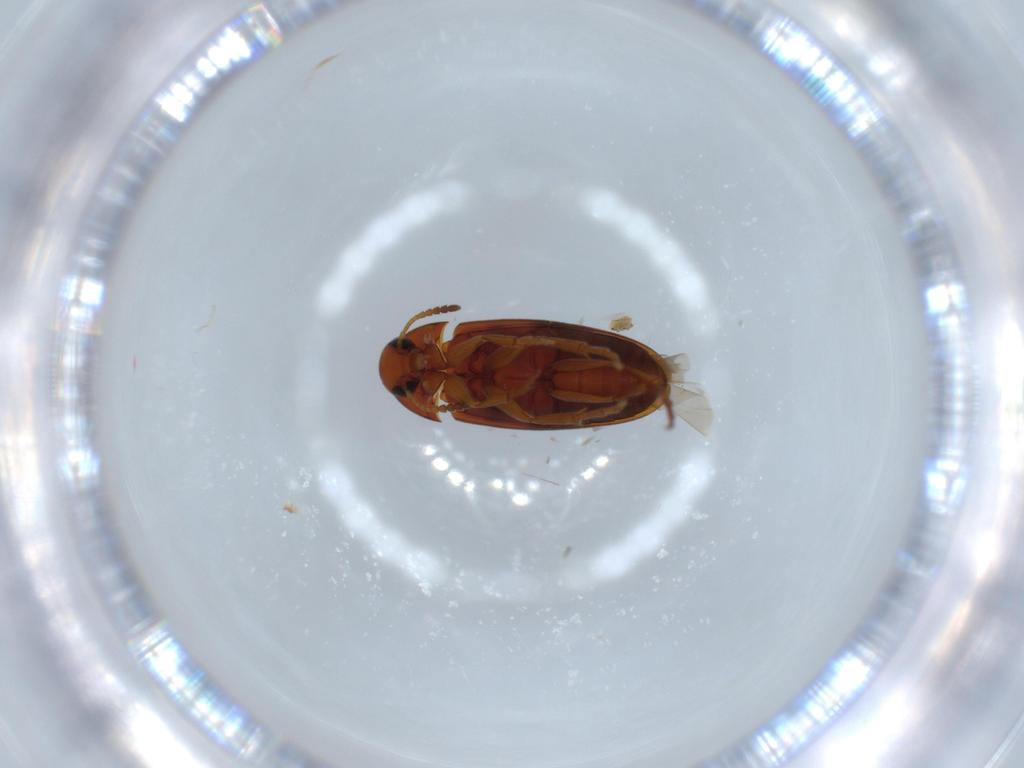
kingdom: Animalia
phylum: Arthropoda
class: Insecta
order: Coleoptera
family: Scraptiidae
